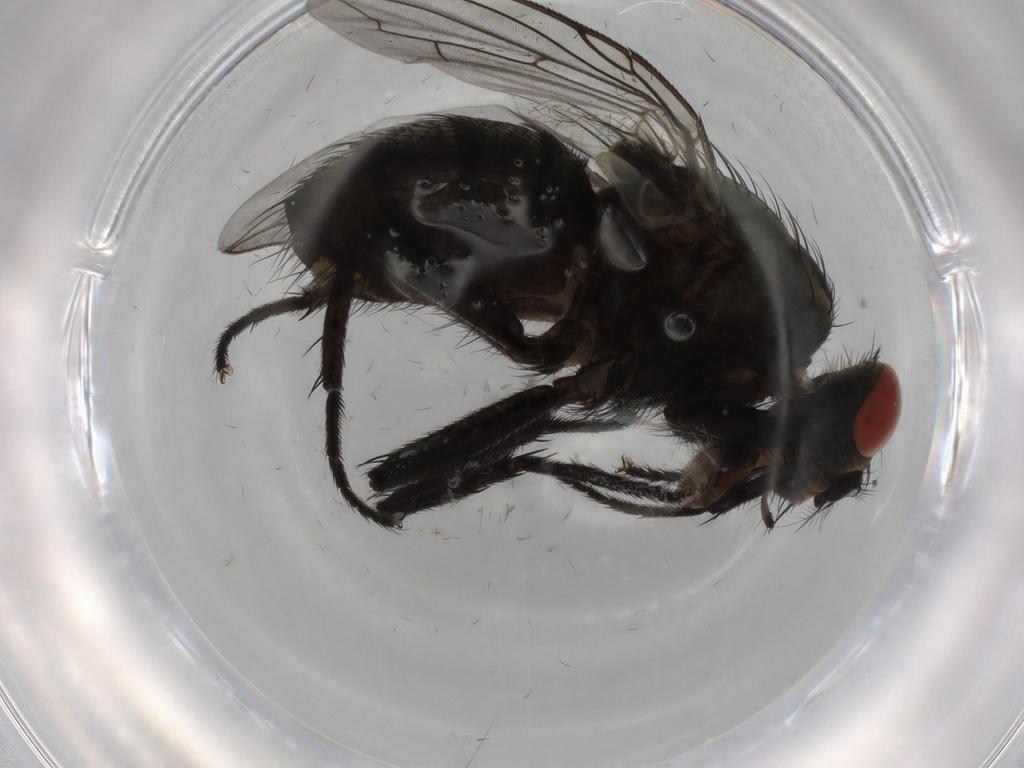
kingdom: Animalia
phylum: Arthropoda
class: Insecta
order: Diptera
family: Sarcophagidae
